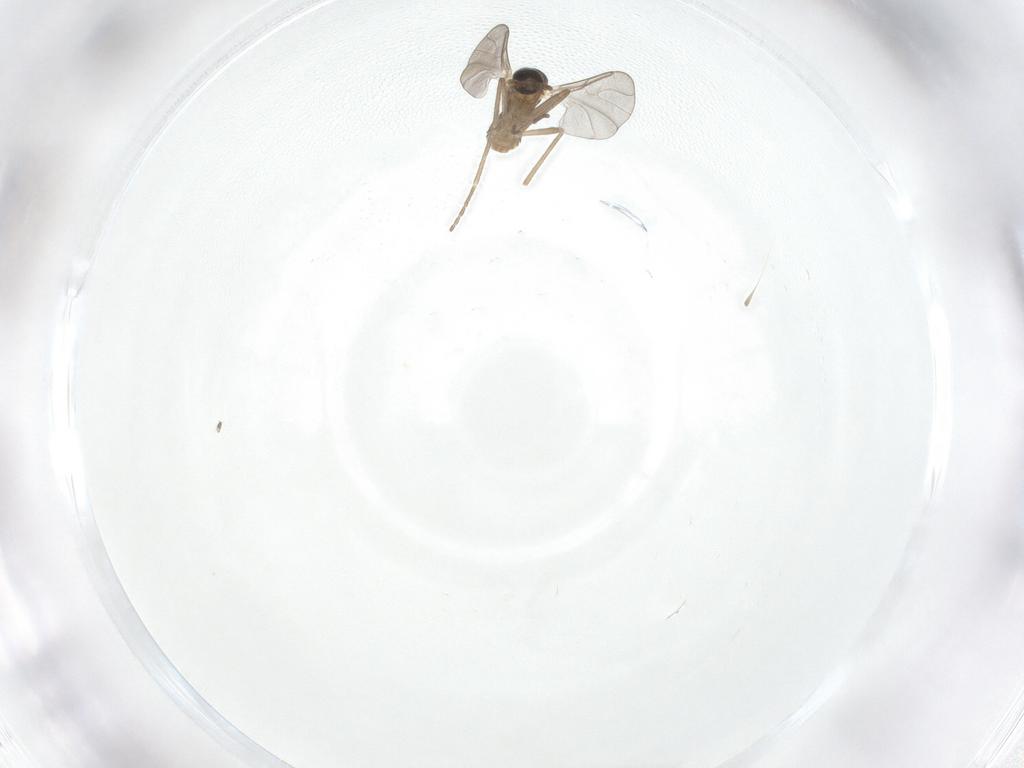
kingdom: Animalia
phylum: Arthropoda
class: Insecta
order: Diptera
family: Cecidomyiidae
